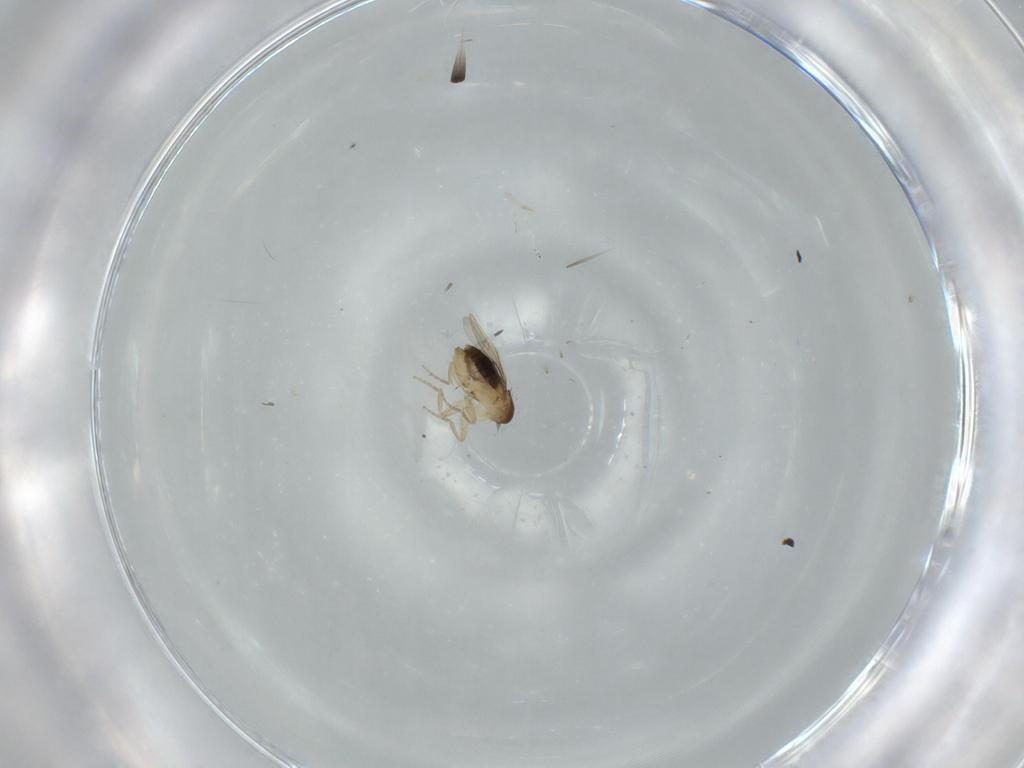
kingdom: Animalia
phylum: Arthropoda
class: Insecta
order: Diptera
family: Phoridae
